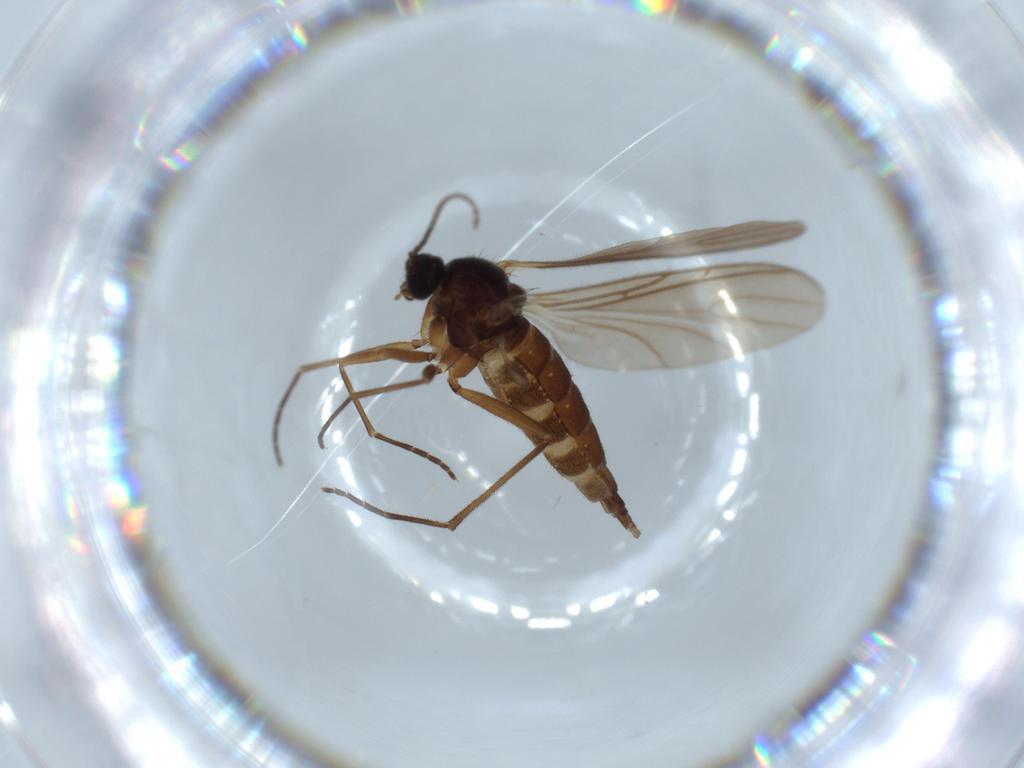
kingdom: Animalia
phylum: Arthropoda
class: Insecta
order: Diptera
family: Sciaridae
